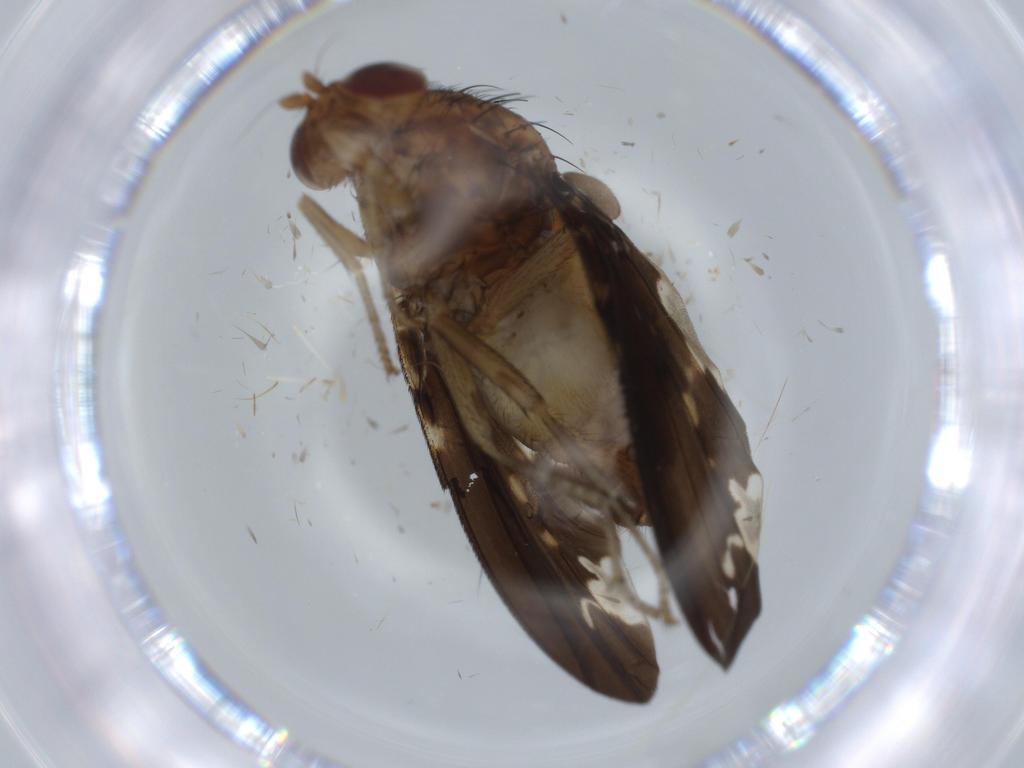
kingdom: Animalia
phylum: Arthropoda
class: Insecta
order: Diptera
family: Lauxaniidae
